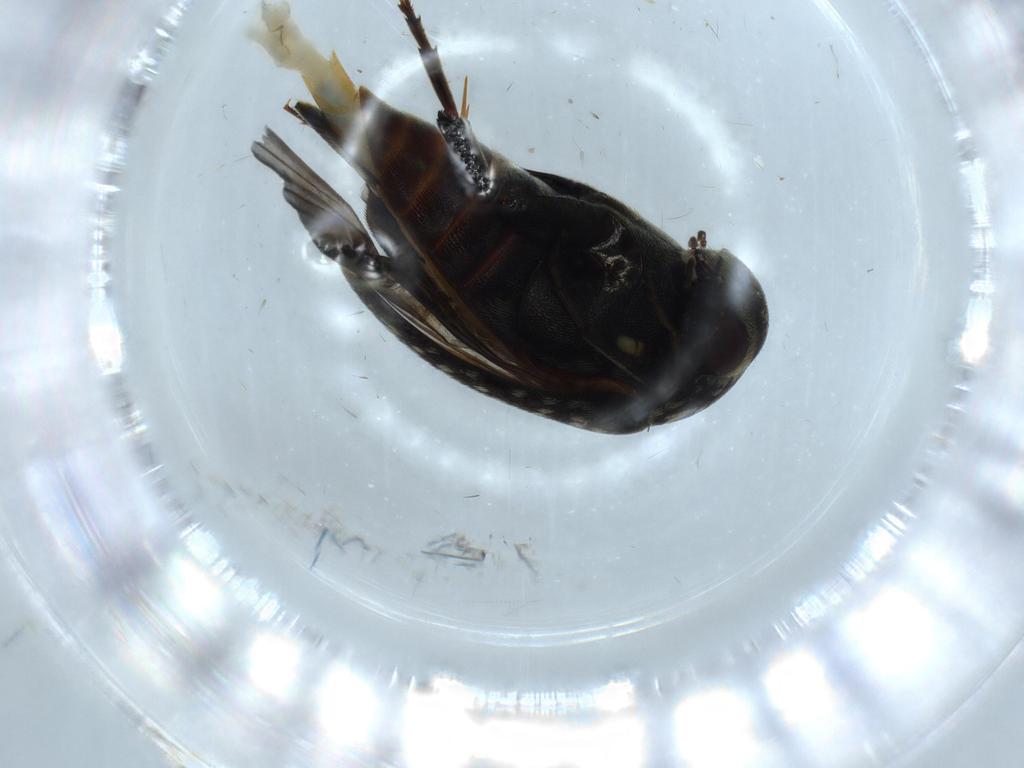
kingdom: Animalia
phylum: Arthropoda
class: Insecta
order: Coleoptera
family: Mordellidae
